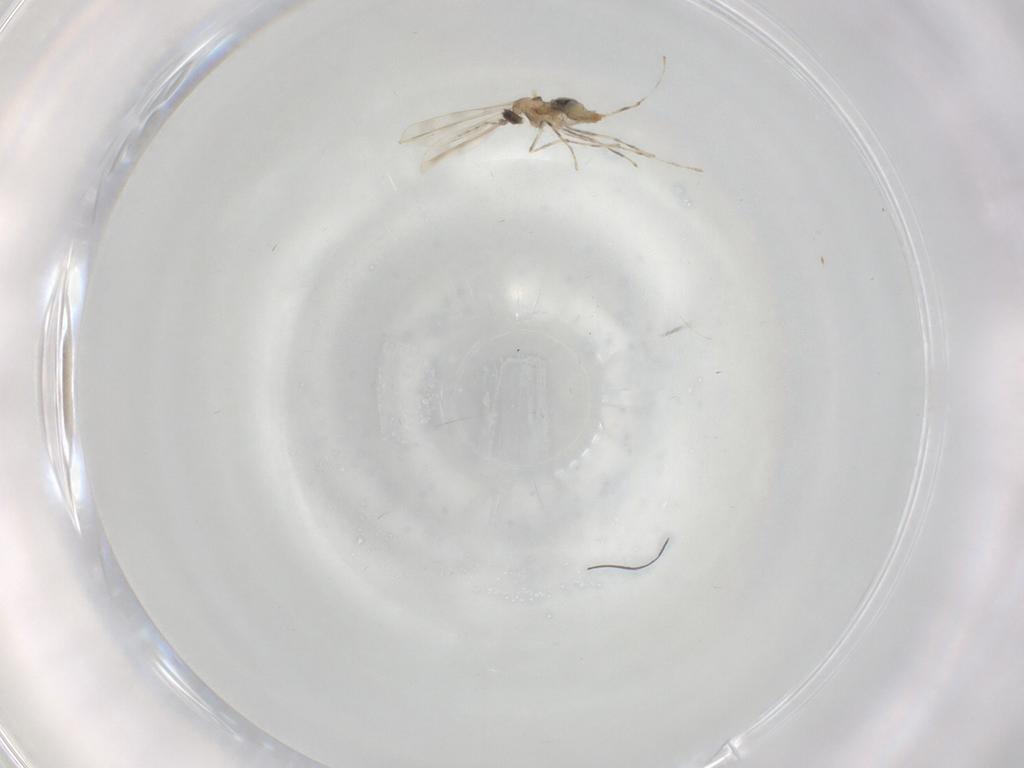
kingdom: Animalia
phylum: Arthropoda
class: Insecta
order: Diptera
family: Cecidomyiidae
